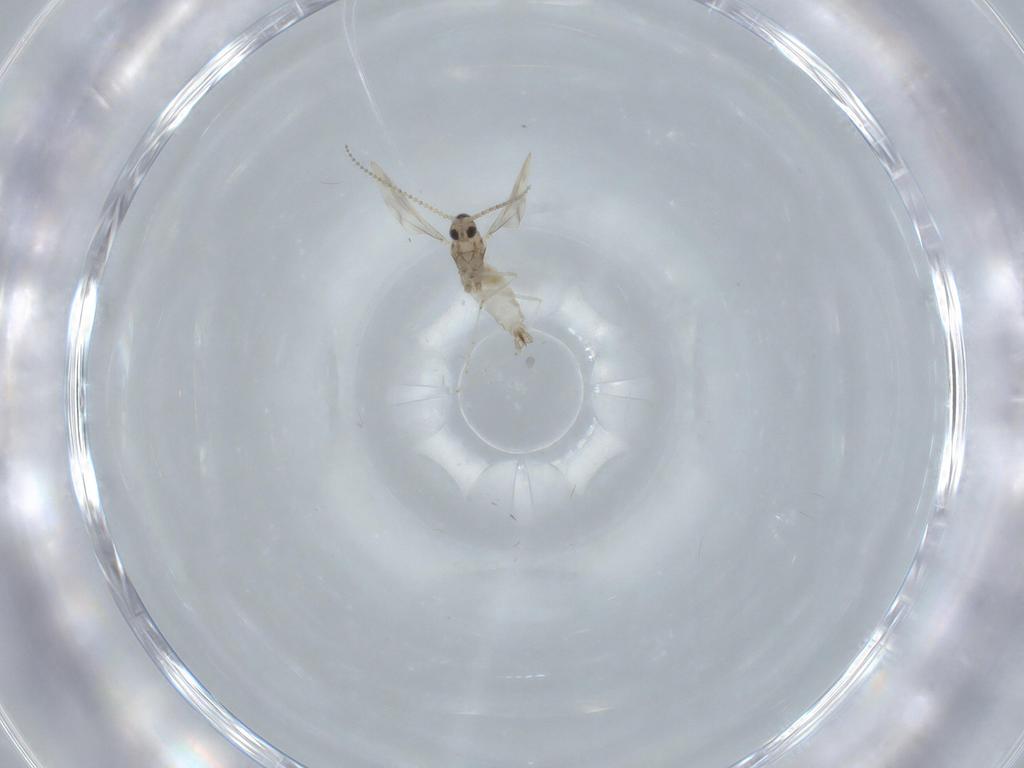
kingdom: Animalia
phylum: Arthropoda
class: Insecta
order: Diptera
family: Cecidomyiidae
